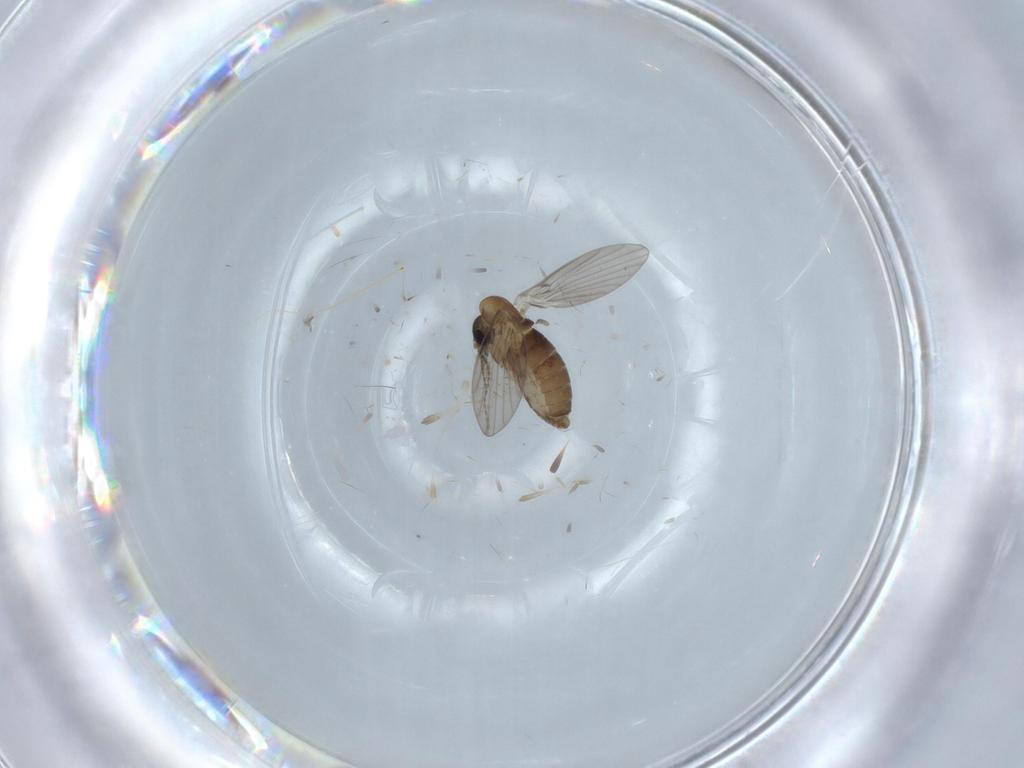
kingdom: Animalia
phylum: Arthropoda
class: Insecta
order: Diptera
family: Psychodidae
